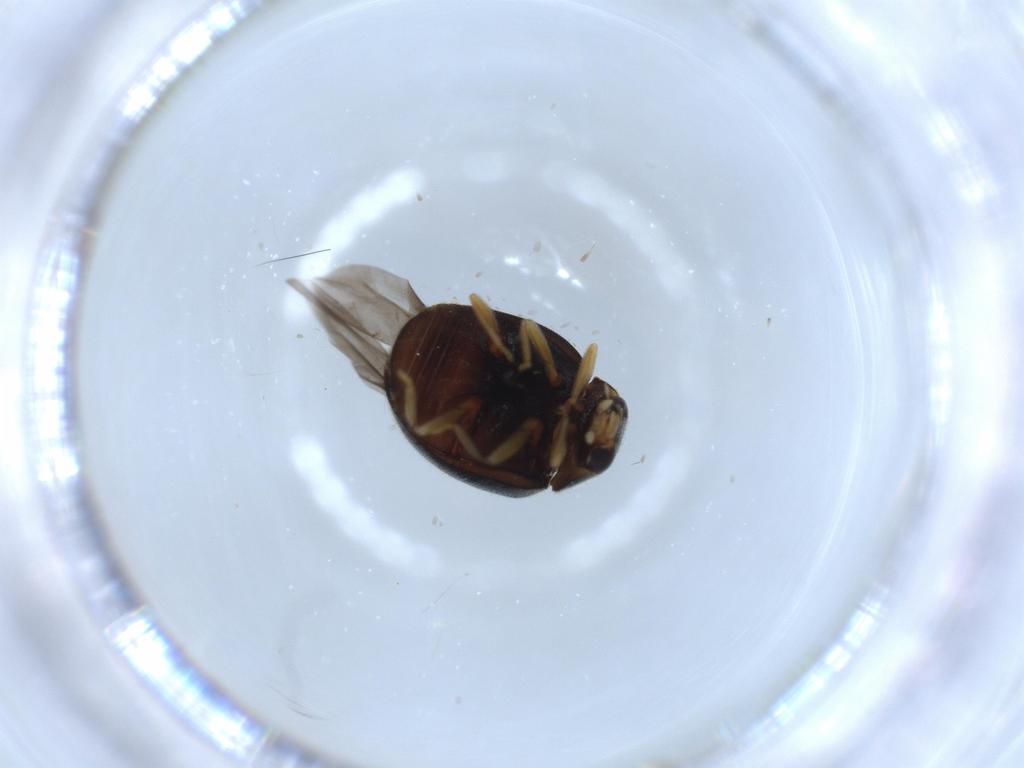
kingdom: Animalia
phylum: Arthropoda
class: Insecta
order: Coleoptera
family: Coccinellidae
